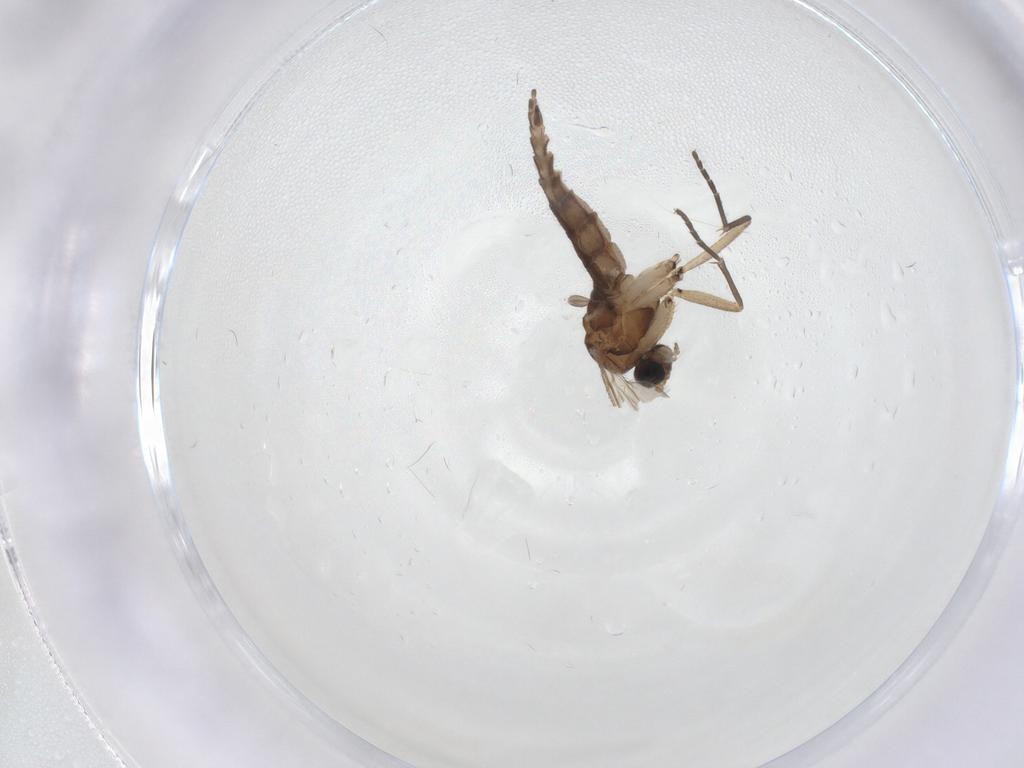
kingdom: Animalia
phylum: Arthropoda
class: Insecta
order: Diptera
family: Sciaridae
